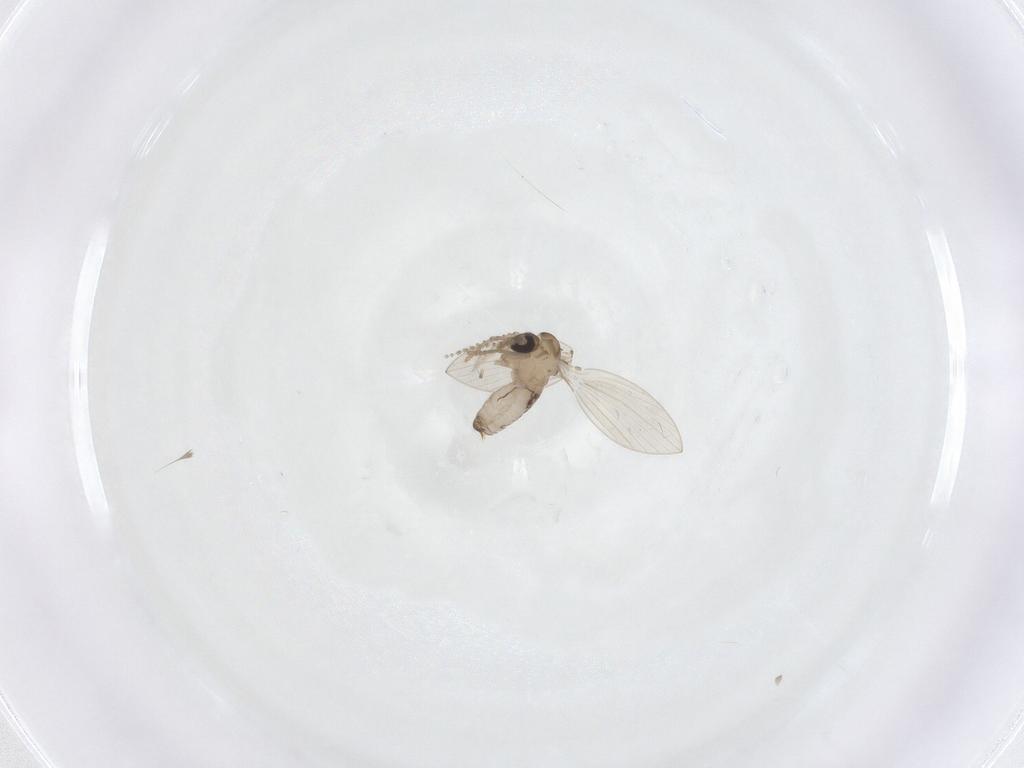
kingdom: Animalia
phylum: Arthropoda
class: Insecta
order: Diptera
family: Psychodidae
